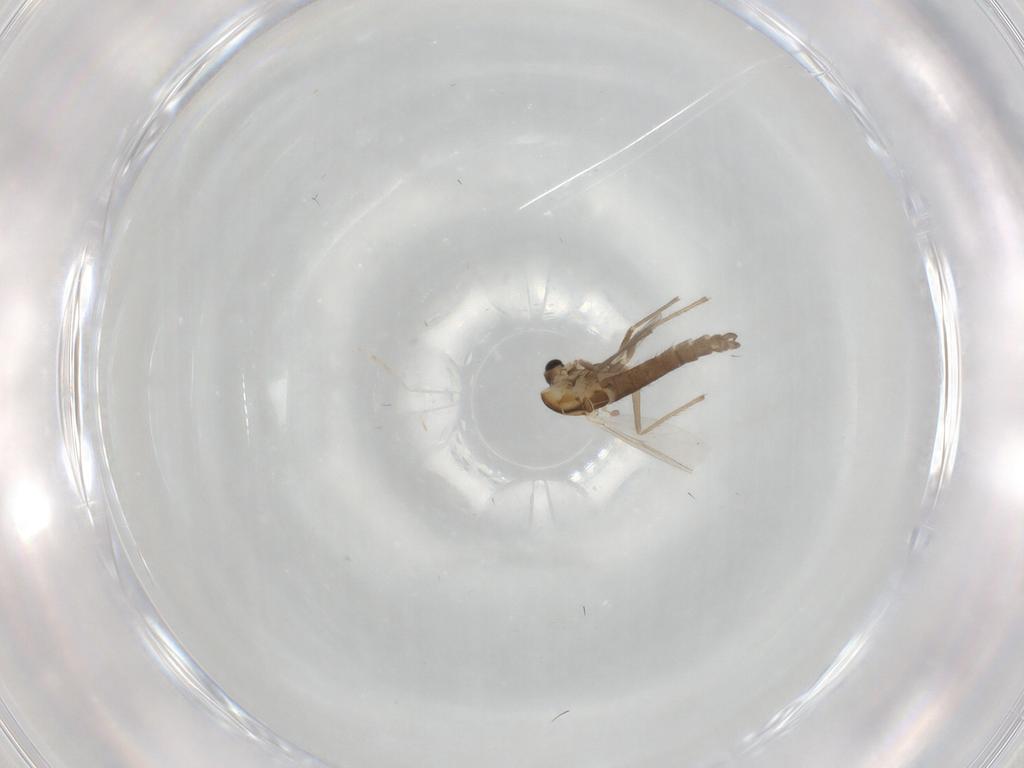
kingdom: Animalia
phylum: Arthropoda
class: Insecta
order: Diptera
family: Chironomidae
